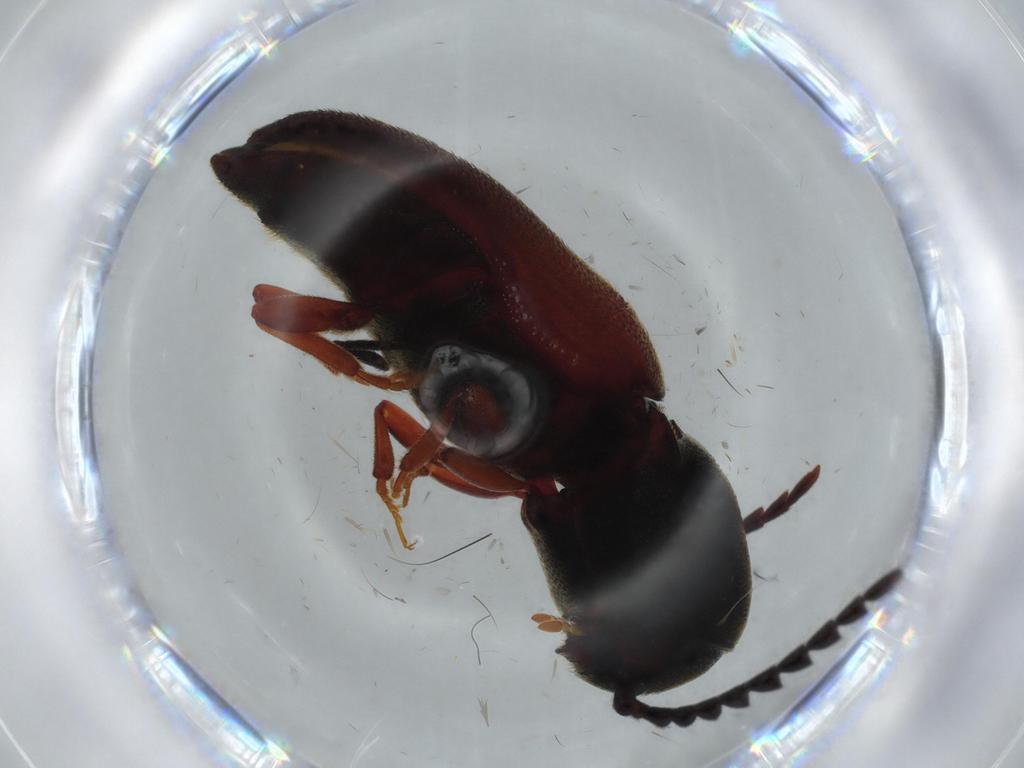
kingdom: Animalia
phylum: Arthropoda
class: Insecta
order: Coleoptera
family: Eucnemidae
